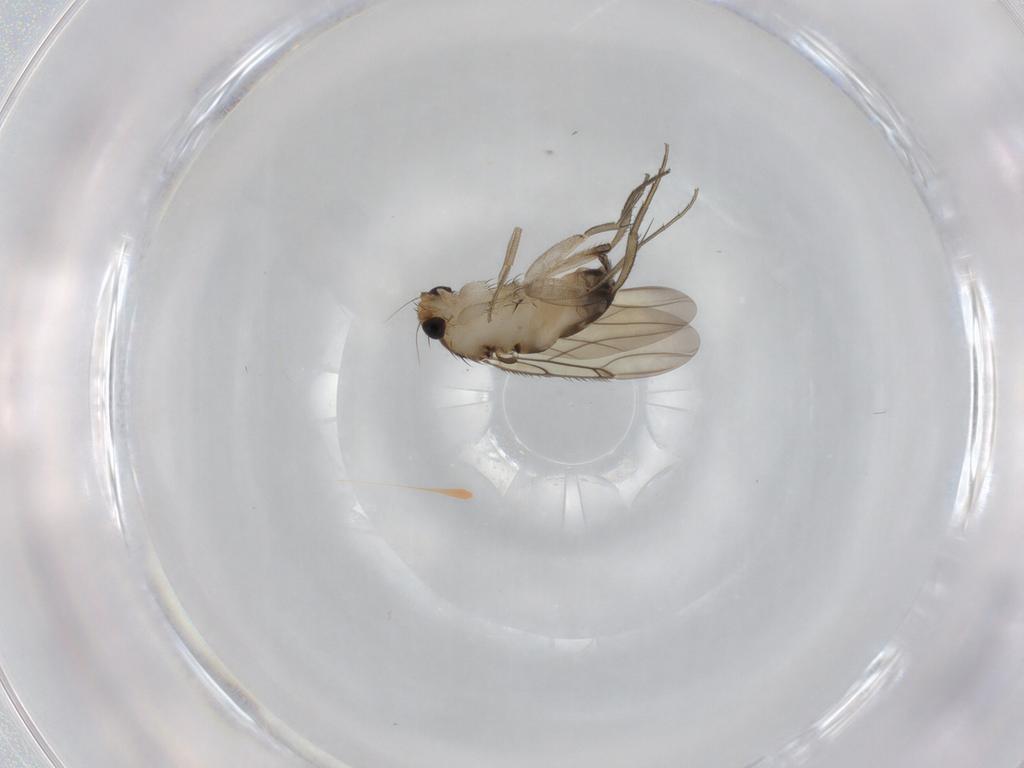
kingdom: Animalia
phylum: Arthropoda
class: Insecta
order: Diptera
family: Phoridae
